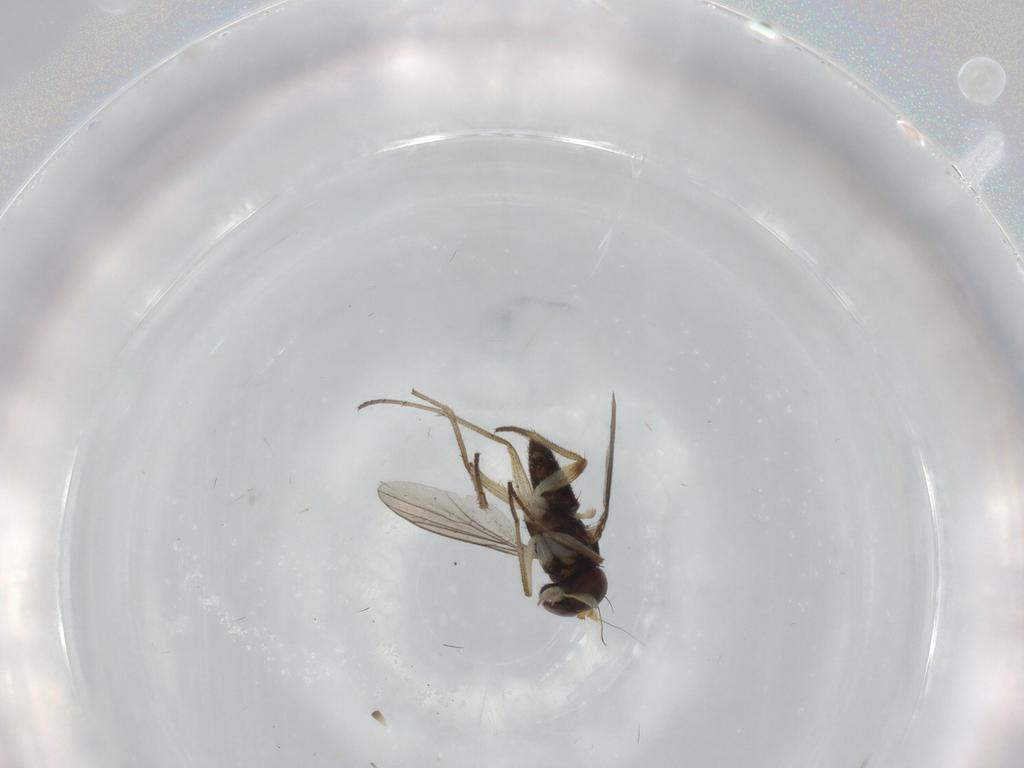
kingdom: Animalia
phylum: Arthropoda
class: Insecta
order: Diptera
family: Dolichopodidae
